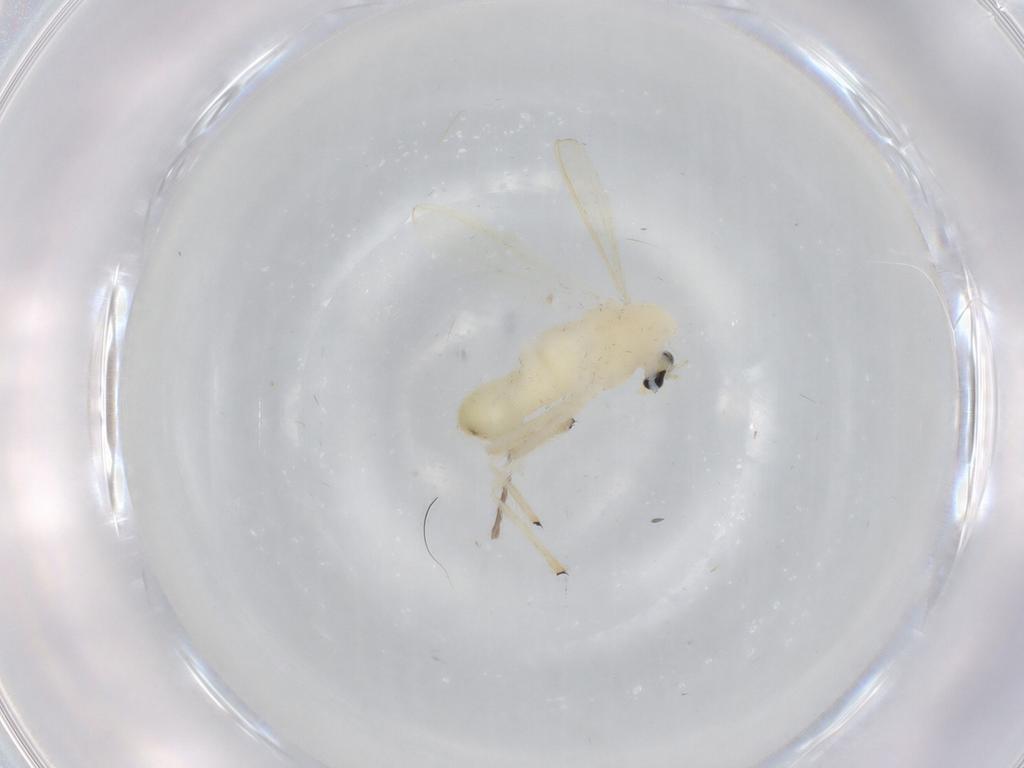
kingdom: Animalia
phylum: Arthropoda
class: Insecta
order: Diptera
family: Chironomidae
